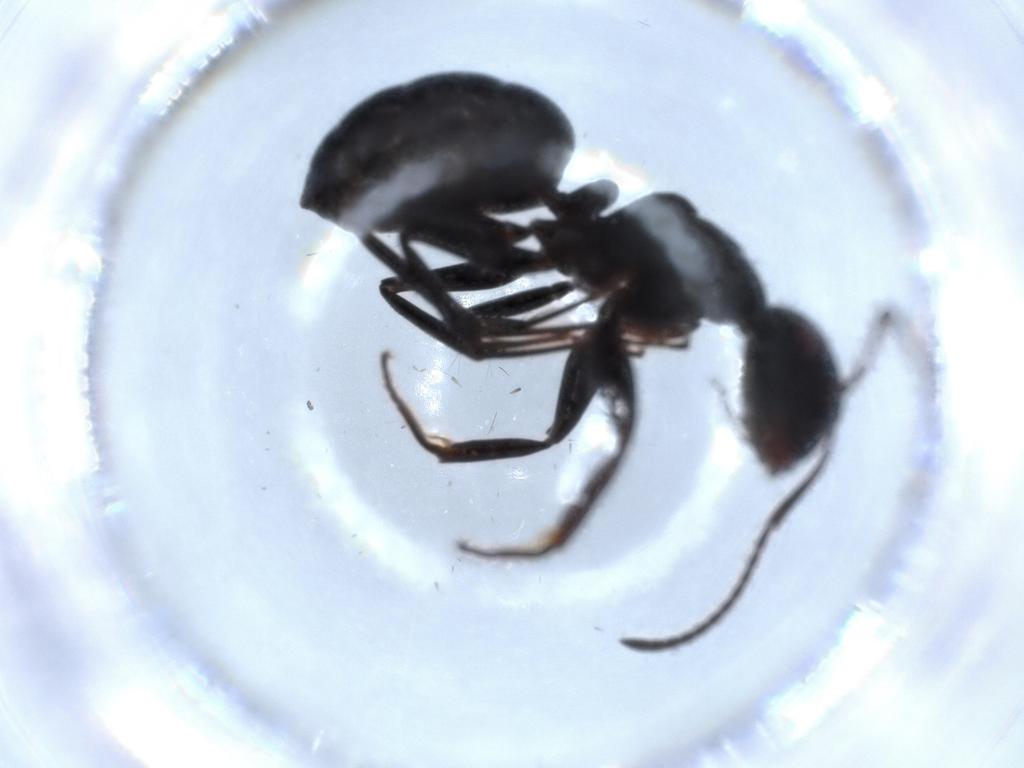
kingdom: Animalia
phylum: Arthropoda
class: Insecta
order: Hymenoptera
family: Formicidae
